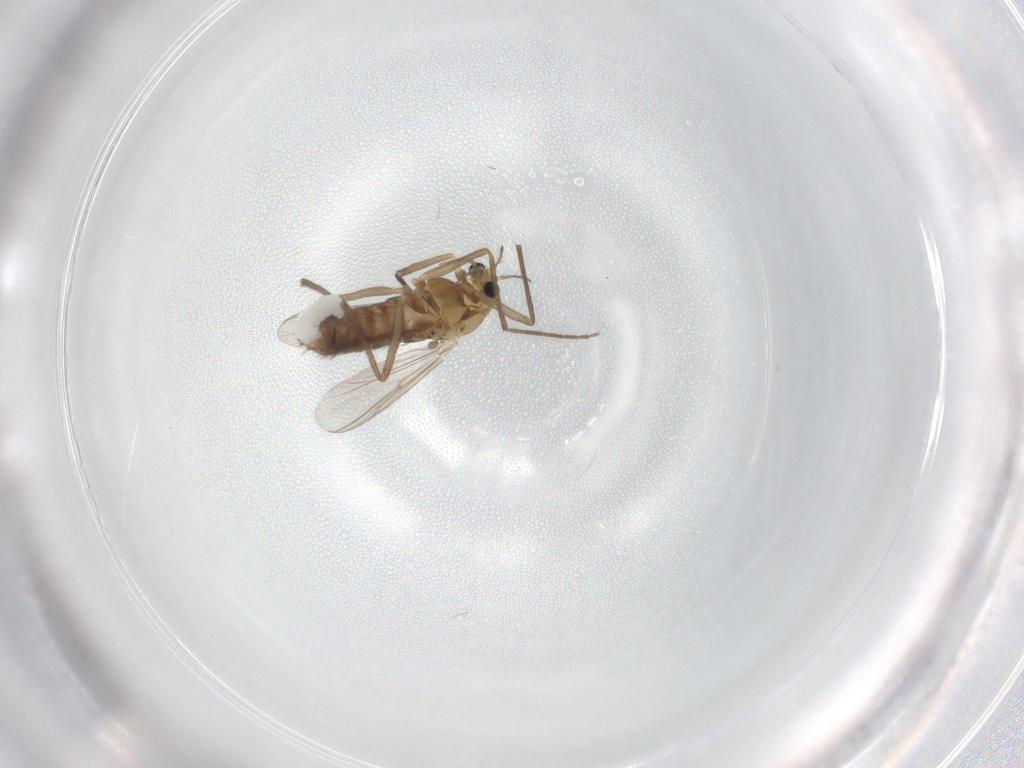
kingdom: Animalia
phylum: Arthropoda
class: Insecta
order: Diptera
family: Chironomidae
